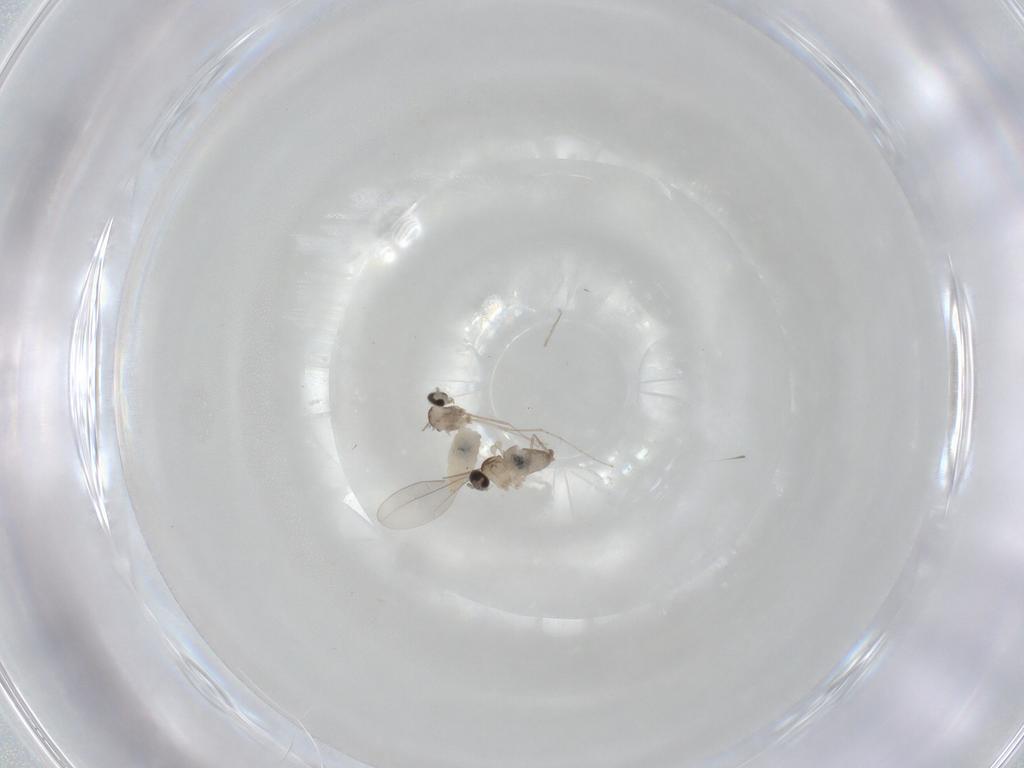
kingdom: Animalia
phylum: Arthropoda
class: Insecta
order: Diptera
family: Cecidomyiidae
